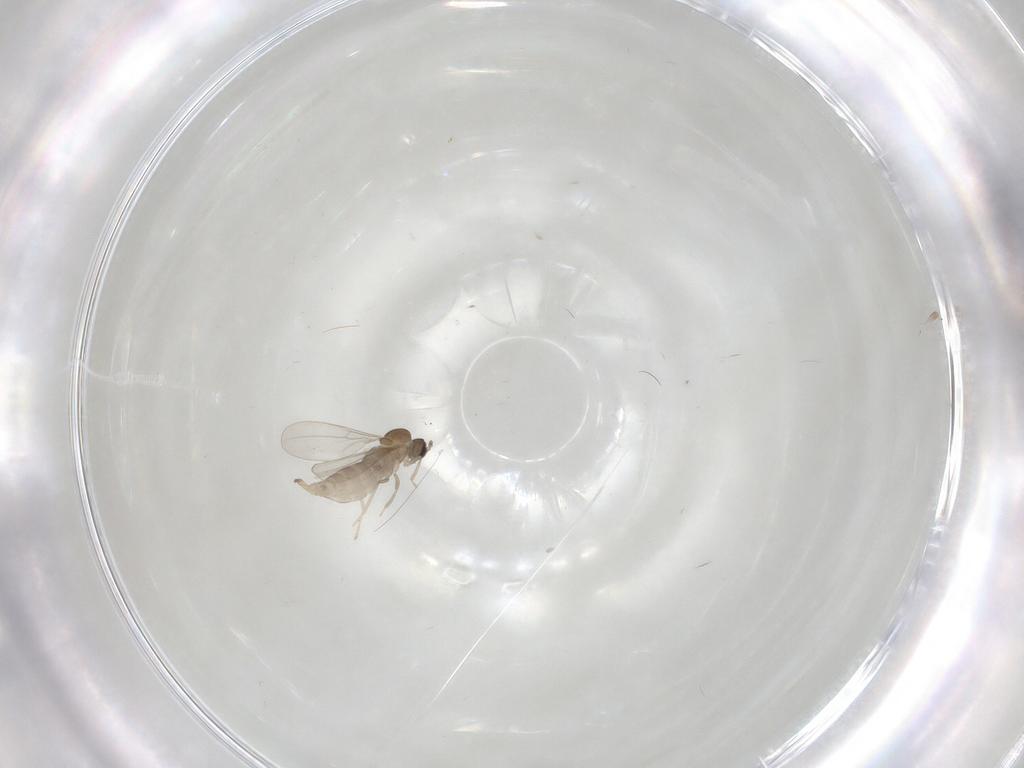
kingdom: Animalia
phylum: Arthropoda
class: Insecta
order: Diptera
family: Cecidomyiidae
